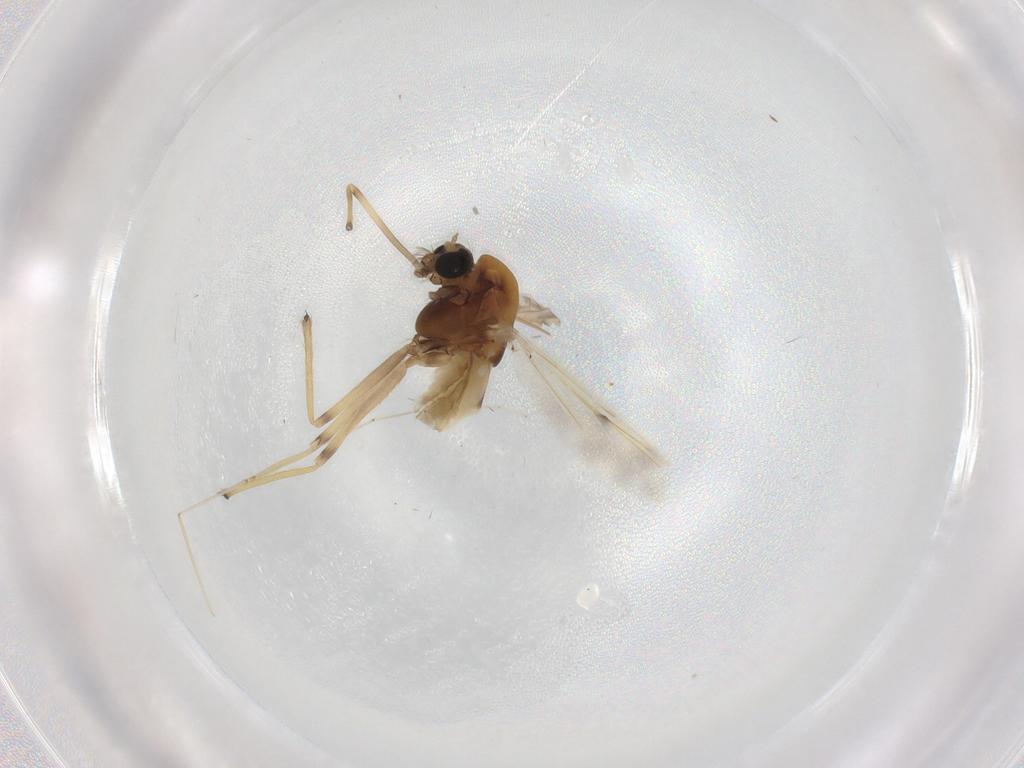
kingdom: Animalia
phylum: Arthropoda
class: Insecta
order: Diptera
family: Chironomidae
